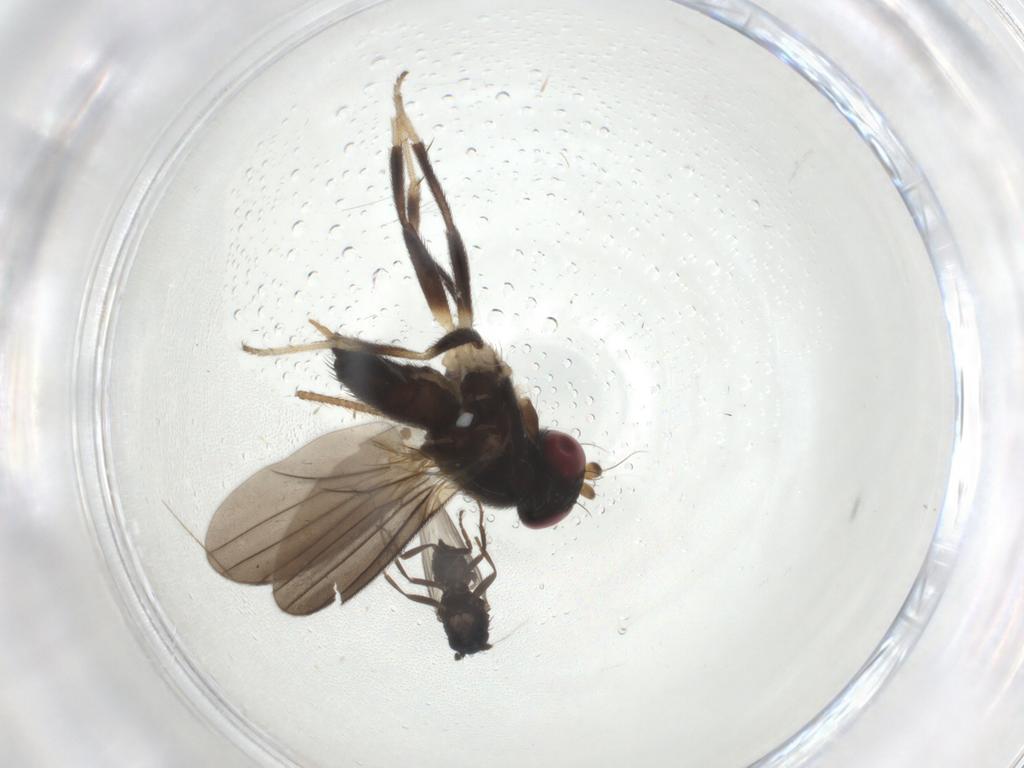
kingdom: Animalia
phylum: Arthropoda
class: Insecta
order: Diptera
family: Clusiidae
